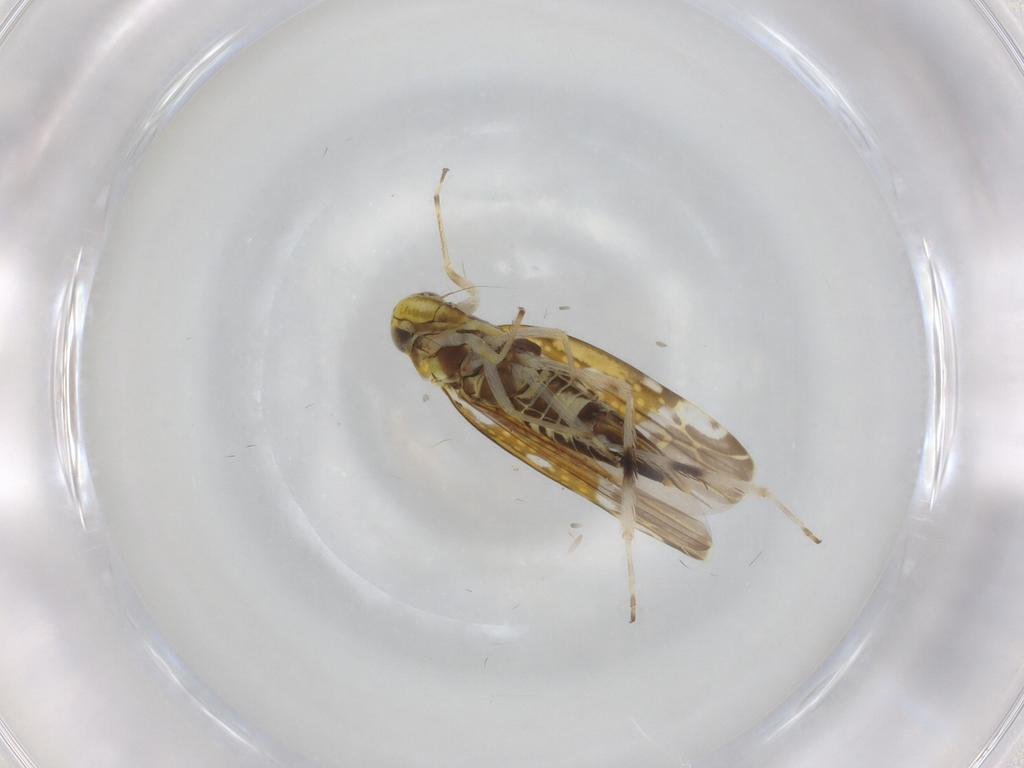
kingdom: Animalia
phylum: Arthropoda
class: Insecta
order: Hemiptera
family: Cicadellidae
